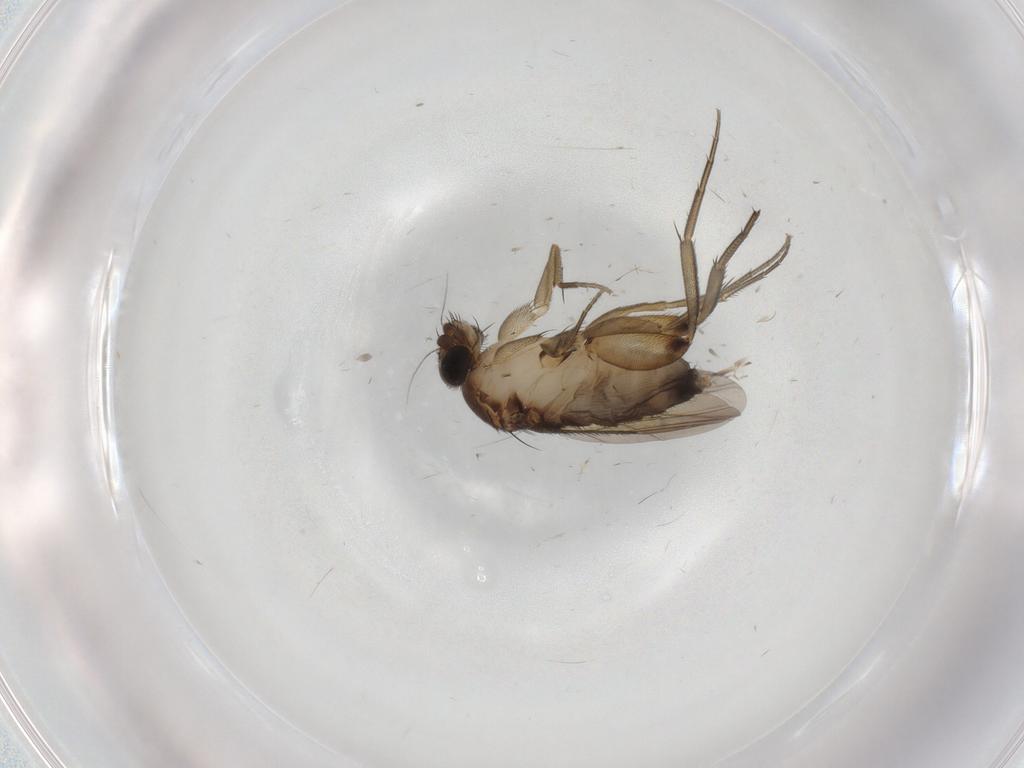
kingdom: Animalia
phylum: Arthropoda
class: Insecta
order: Diptera
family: Phoridae
